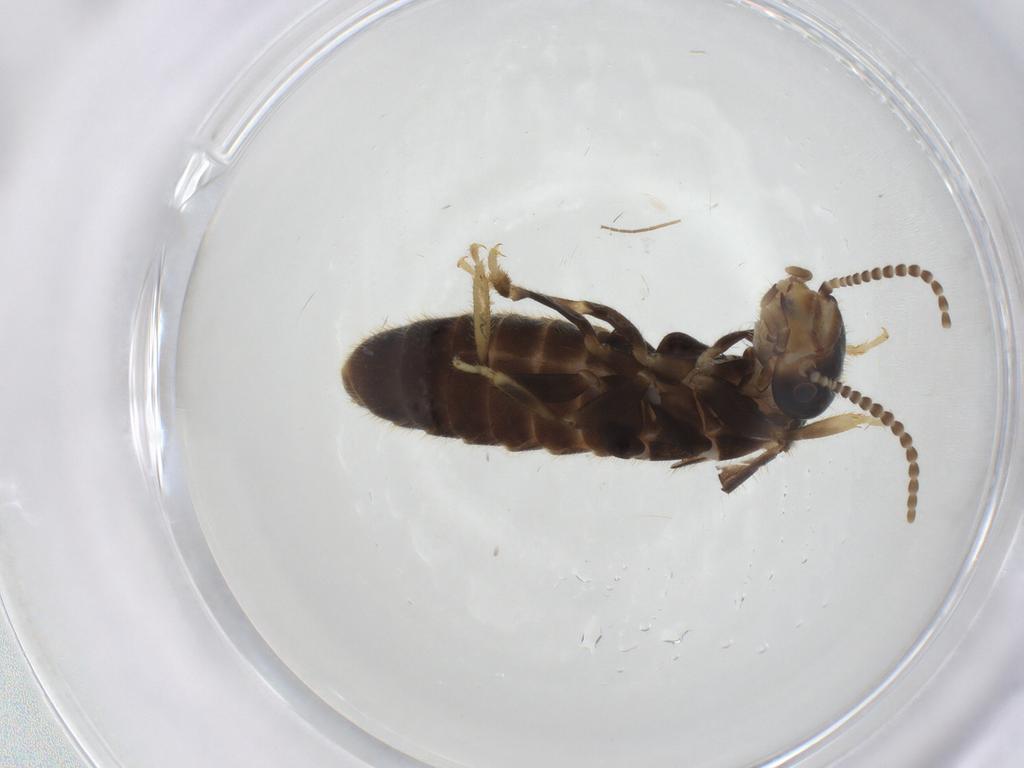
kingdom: Animalia
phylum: Arthropoda
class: Insecta
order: Blattodea
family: Rhinotermitidae
